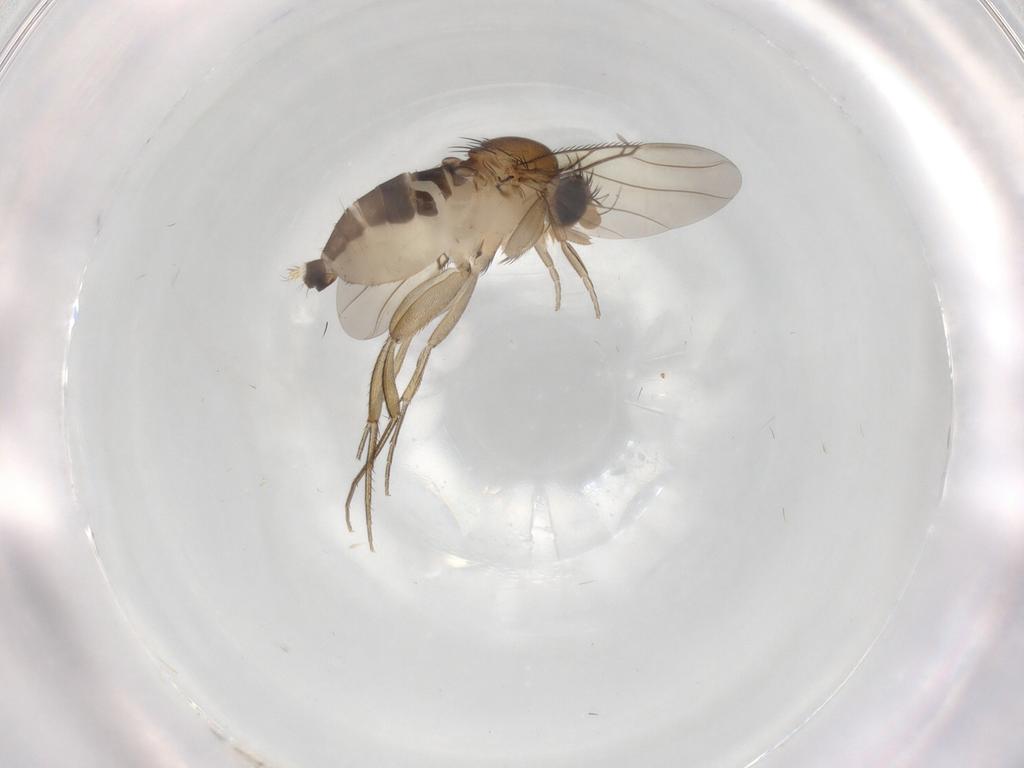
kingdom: Animalia
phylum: Arthropoda
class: Insecta
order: Diptera
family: Phoridae
